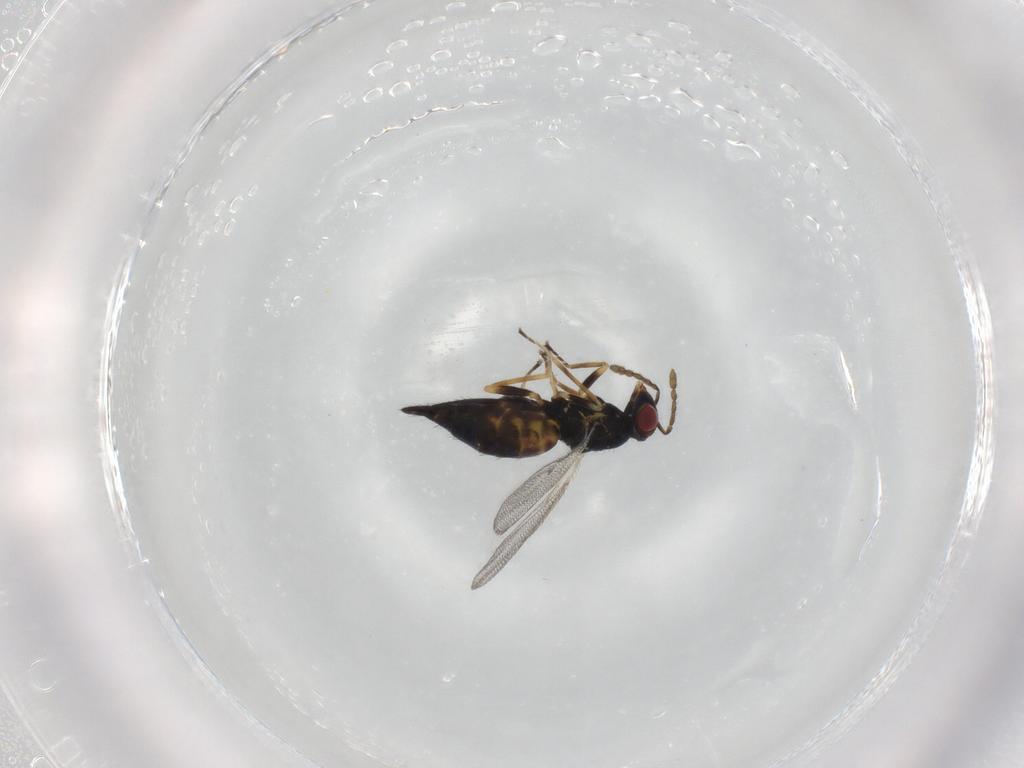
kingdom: Animalia
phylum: Arthropoda
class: Insecta
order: Hymenoptera
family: Eulophidae
